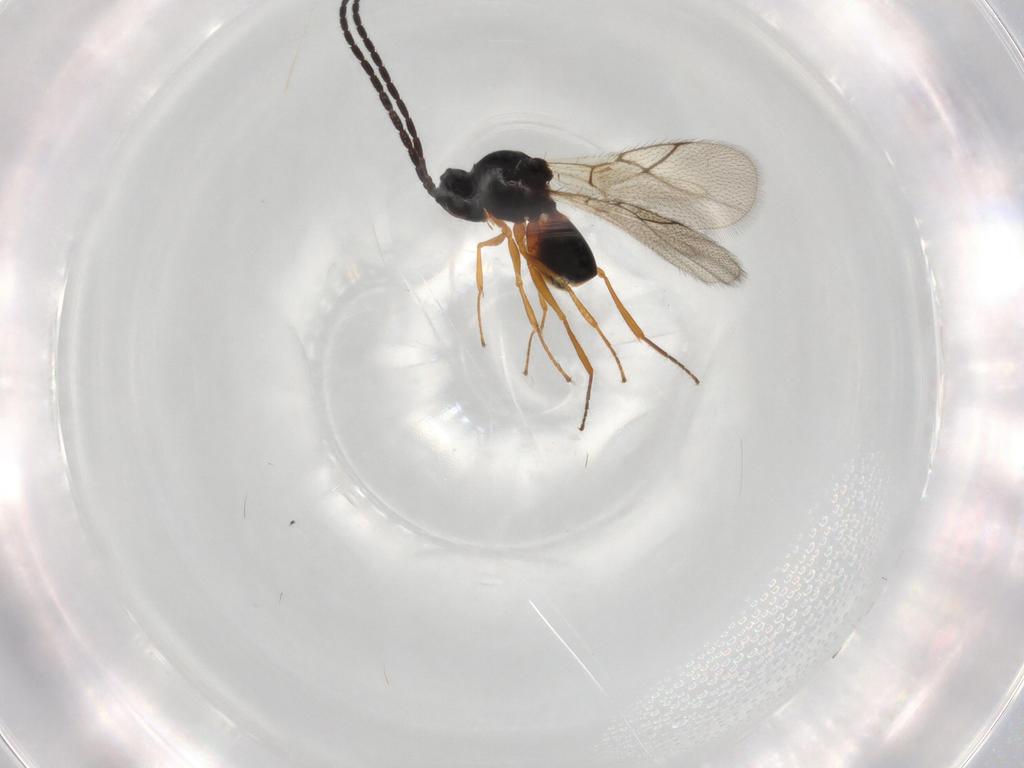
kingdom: Animalia
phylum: Arthropoda
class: Insecta
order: Hymenoptera
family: Figitidae
